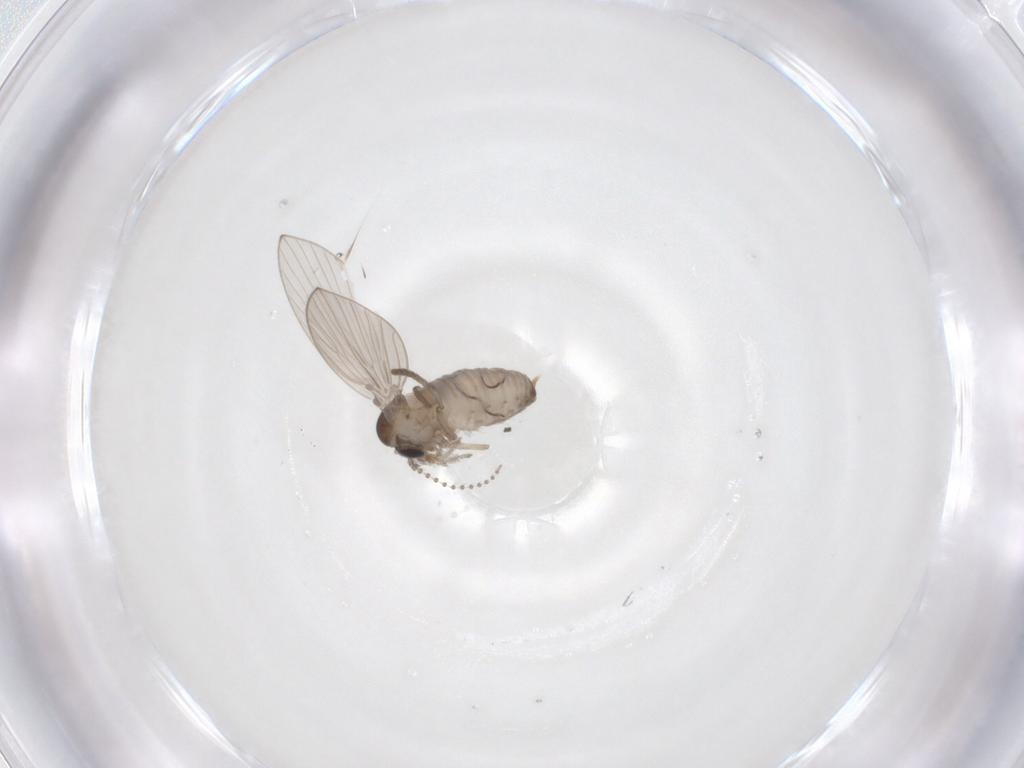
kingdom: Animalia
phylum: Arthropoda
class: Insecta
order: Diptera
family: Psychodidae
